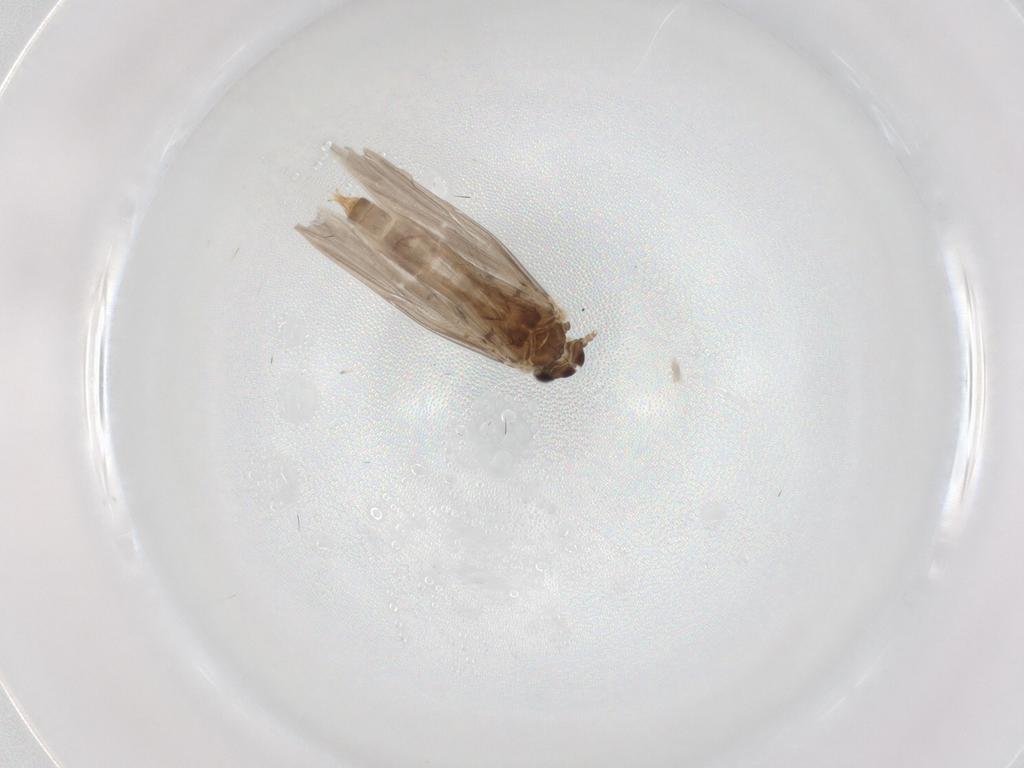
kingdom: Animalia
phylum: Arthropoda
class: Insecta
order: Trichoptera
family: Hydroptilidae
